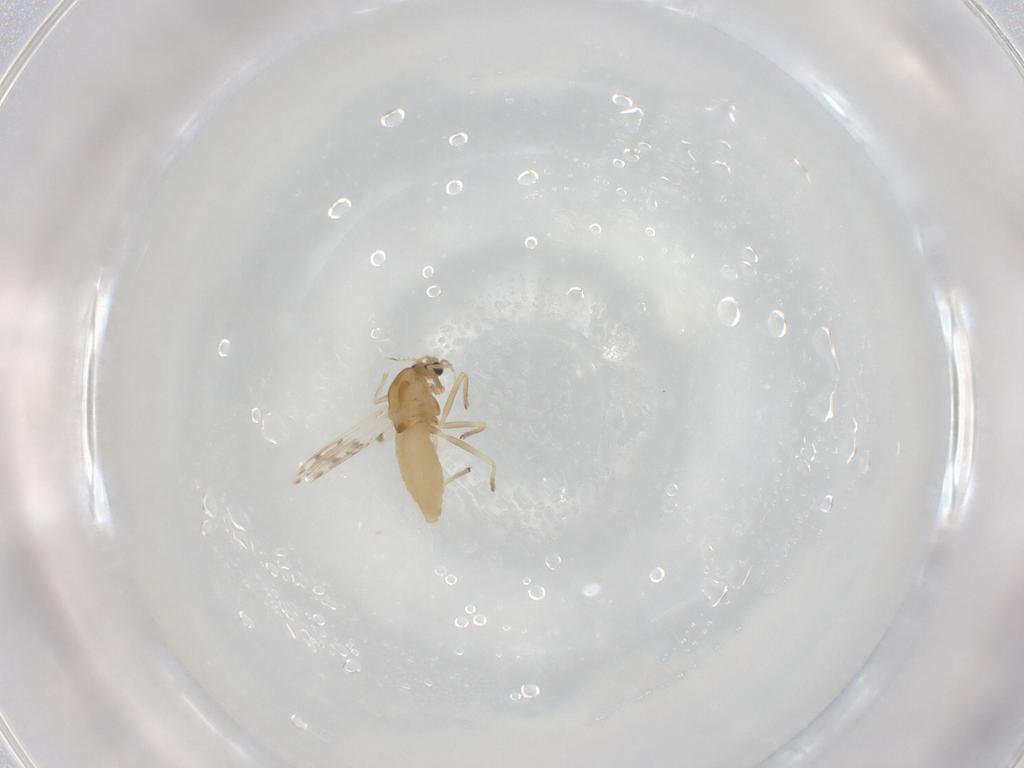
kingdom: Animalia
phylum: Arthropoda
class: Insecta
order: Diptera
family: Chironomidae
